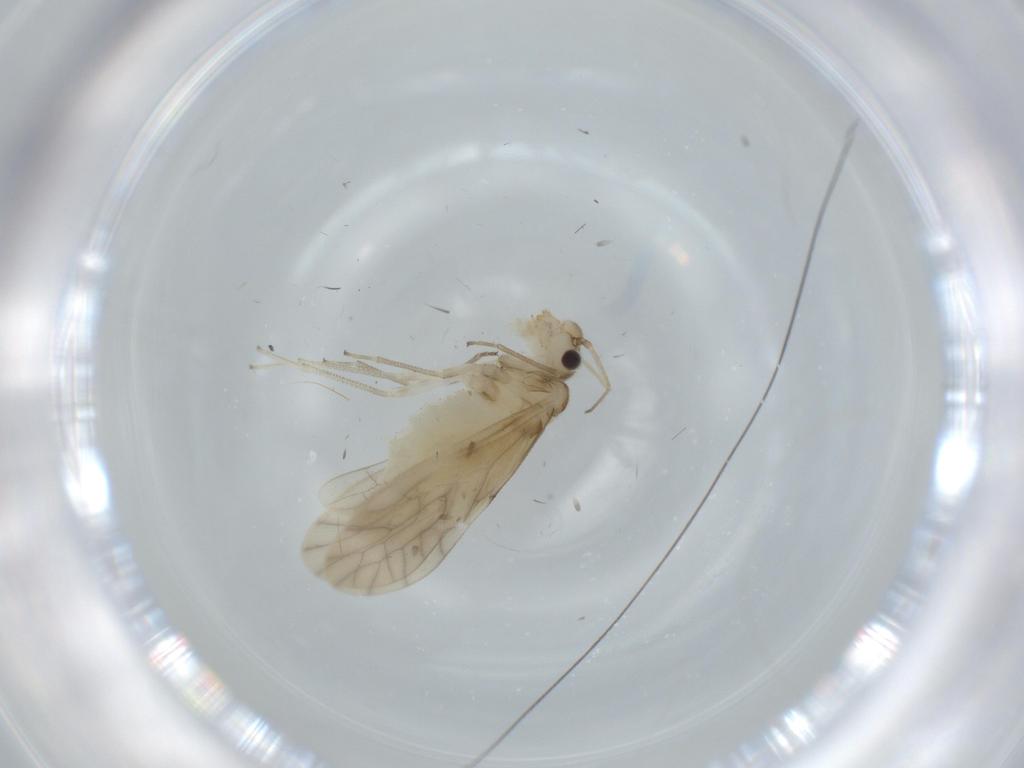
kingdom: Animalia
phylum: Arthropoda
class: Insecta
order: Psocodea
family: Caeciliusidae
